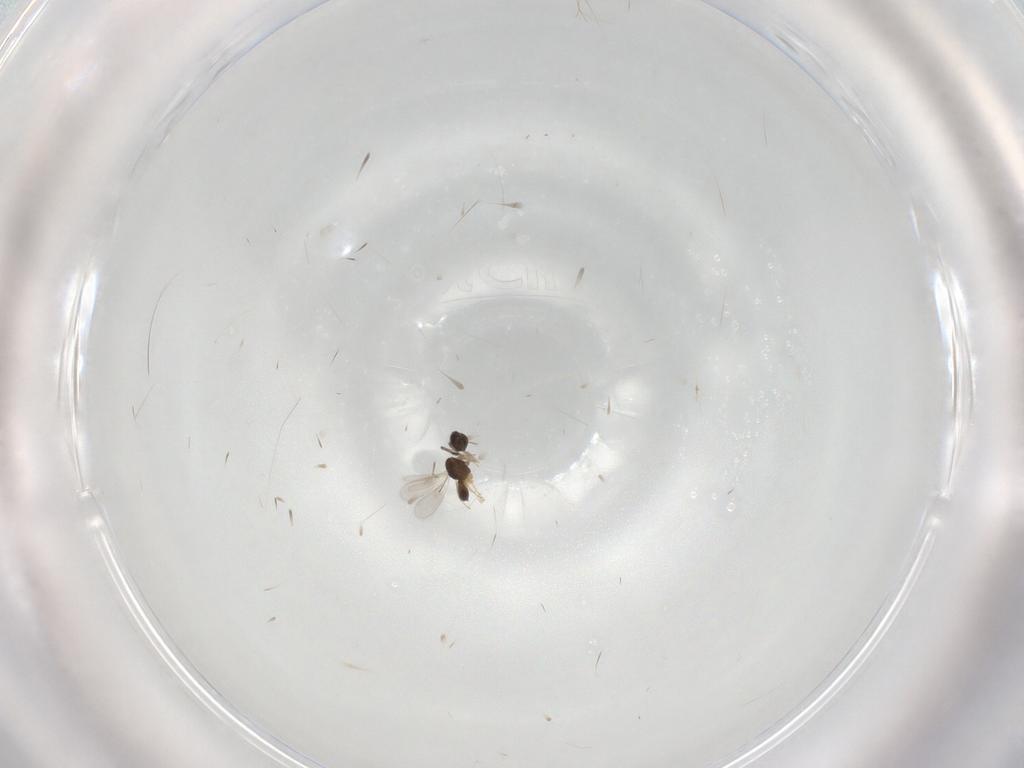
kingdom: Animalia
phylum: Arthropoda
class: Insecta
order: Hymenoptera
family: Scelionidae
